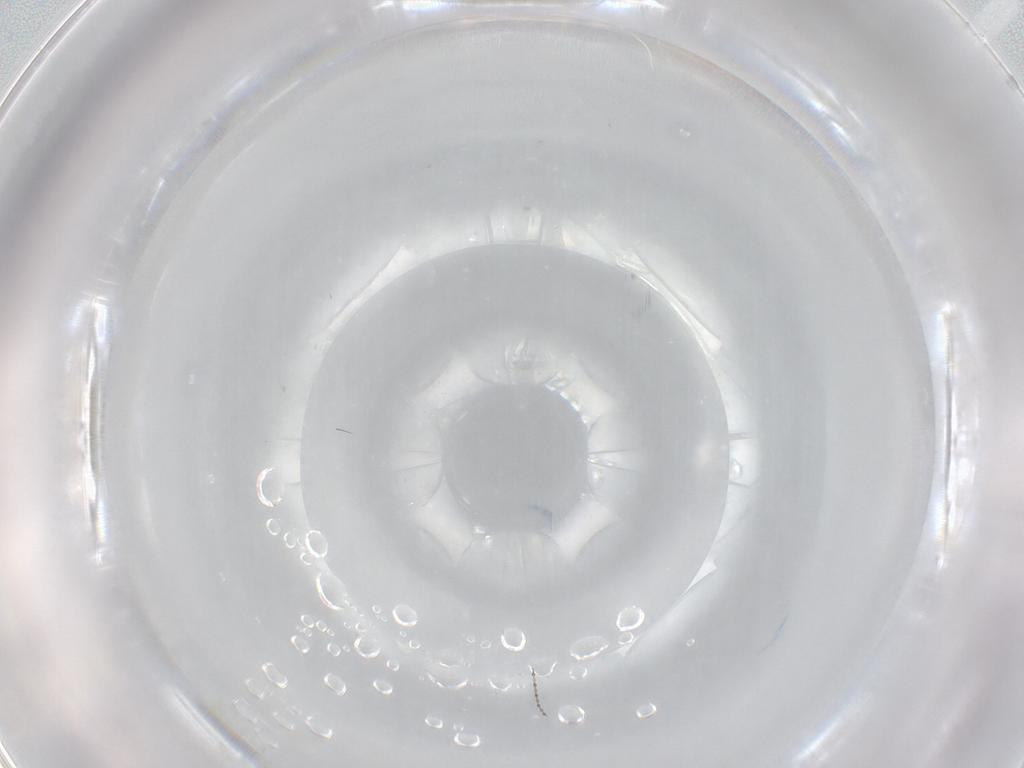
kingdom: Animalia
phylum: Arthropoda
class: Insecta
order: Diptera
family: Cecidomyiidae
